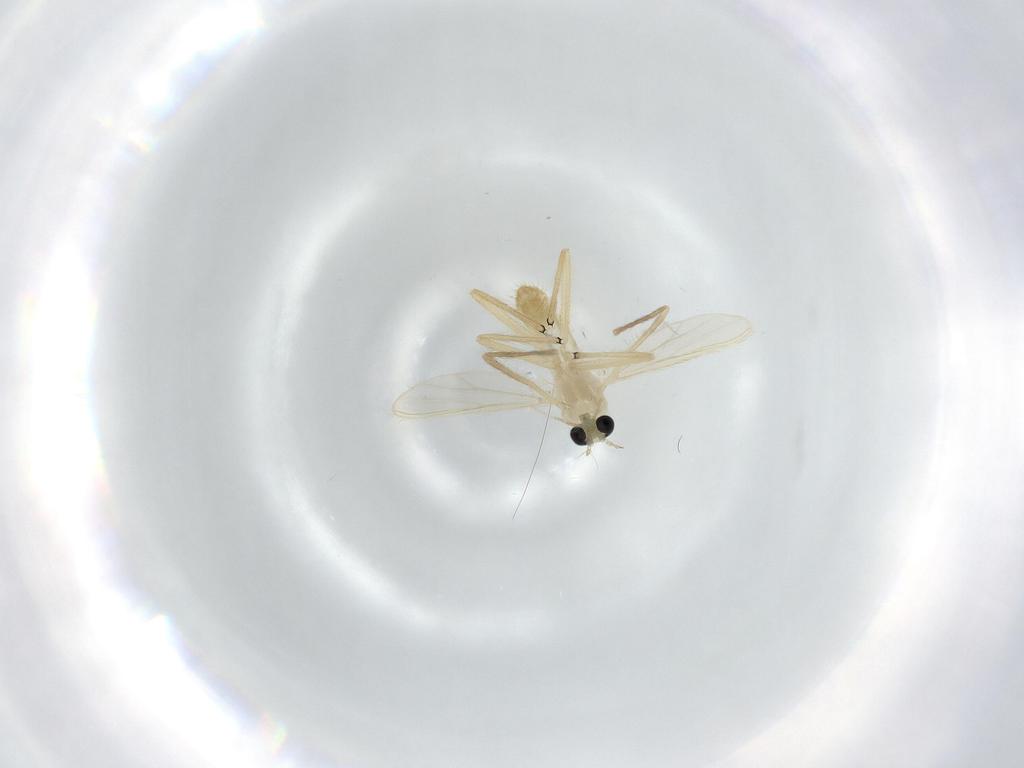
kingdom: Animalia
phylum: Arthropoda
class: Insecta
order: Diptera
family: Chironomidae
